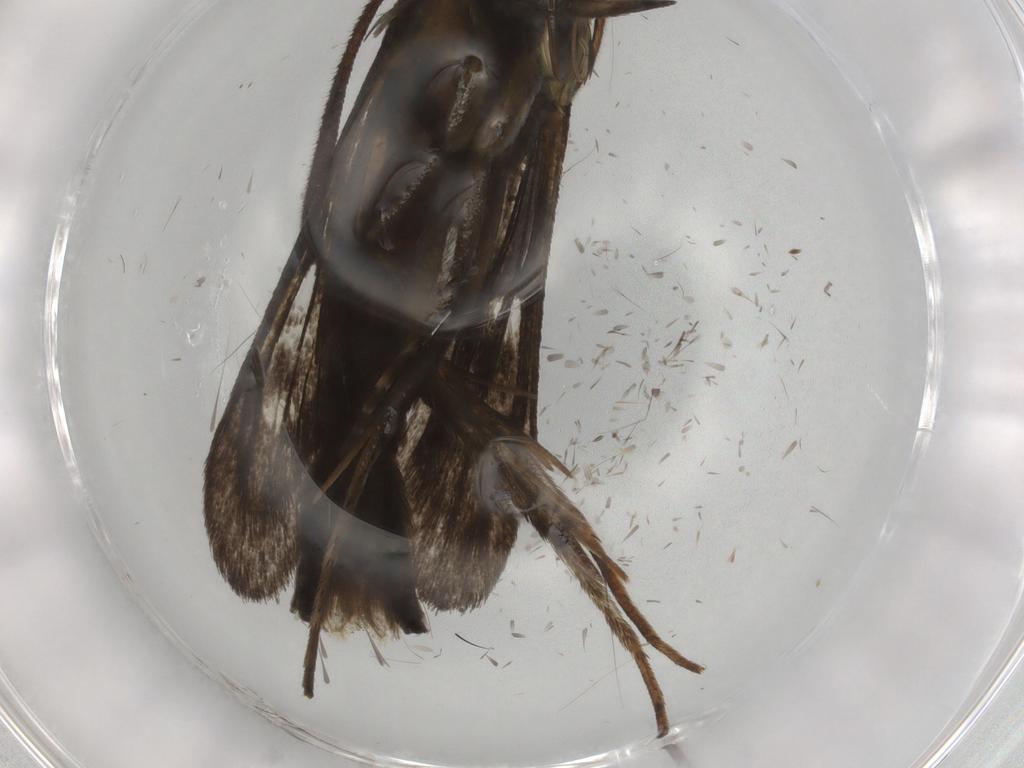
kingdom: Animalia
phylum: Arthropoda
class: Insecta
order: Lepidoptera
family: Sesiidae
